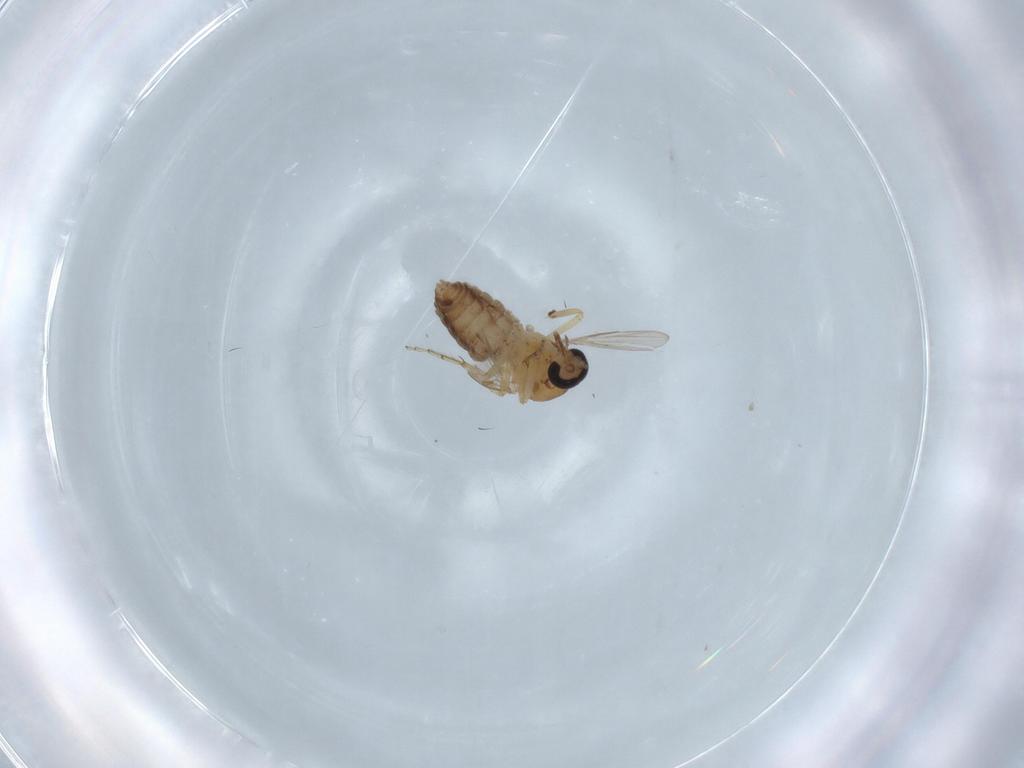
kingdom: Animalia
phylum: Arthropoda
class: Insecta
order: Diptera
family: Ceratopogonidae
